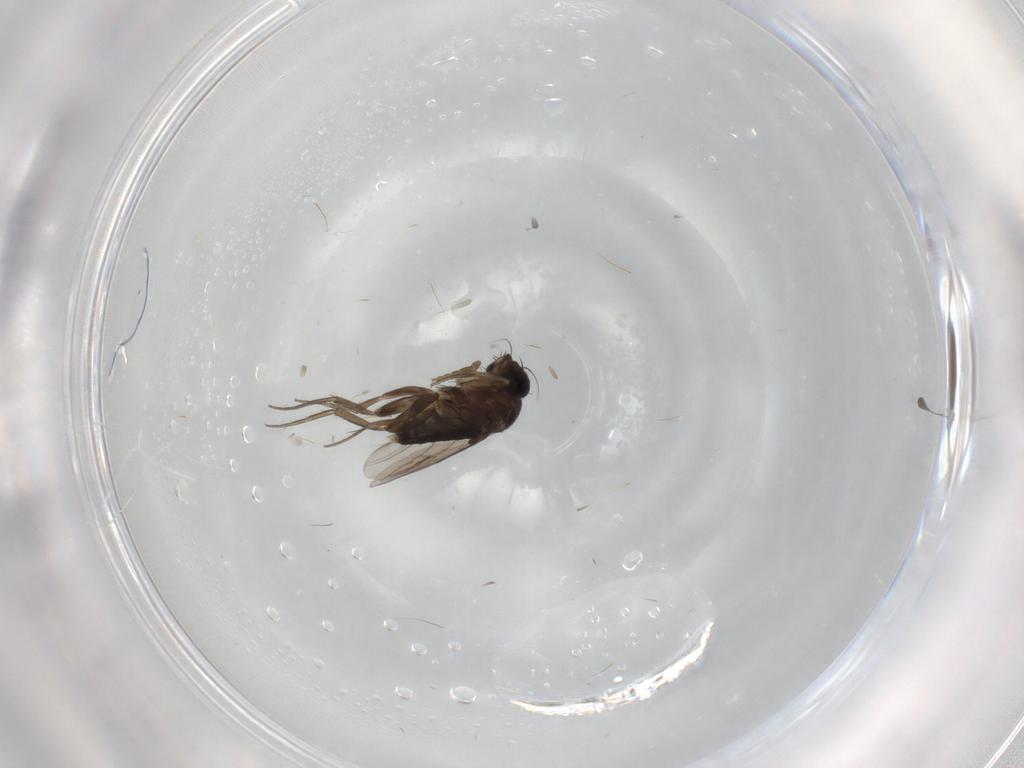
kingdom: Animalia
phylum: Arthropoda
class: Insecta
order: Diptera
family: Phoridae
